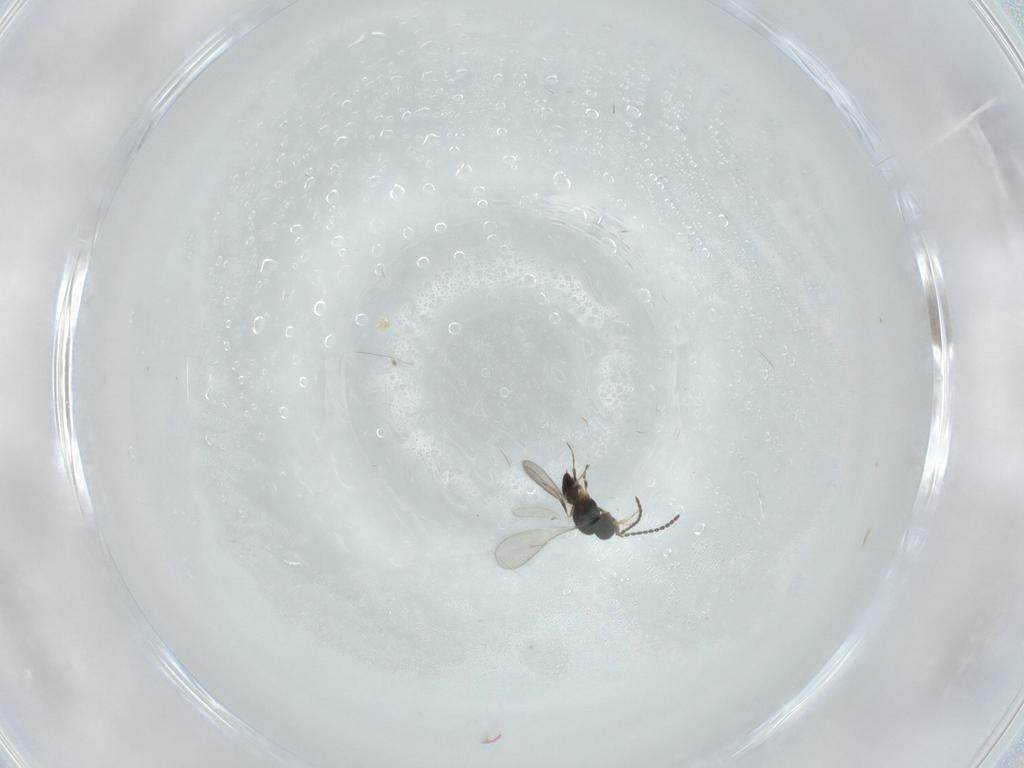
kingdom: Animalia
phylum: Arthropoda
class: Insecta
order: Hymenoptera
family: Scelionidae
